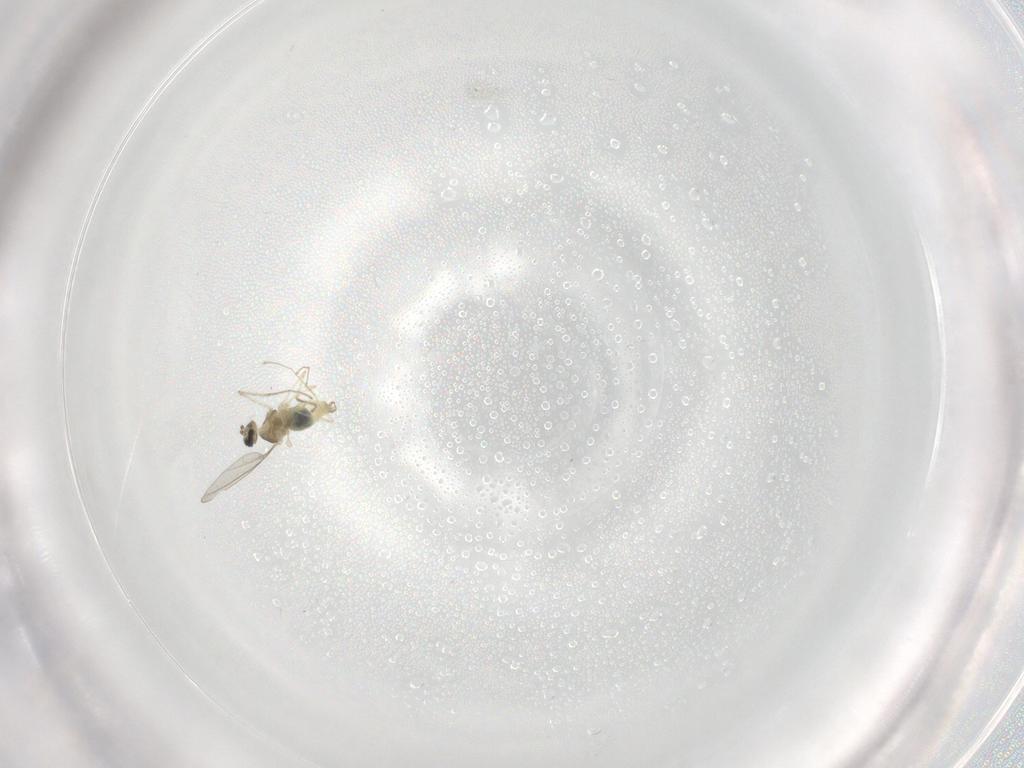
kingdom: Animalia
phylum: Arthropoda
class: Insecta
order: Diptera
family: Cecidomyiidae
